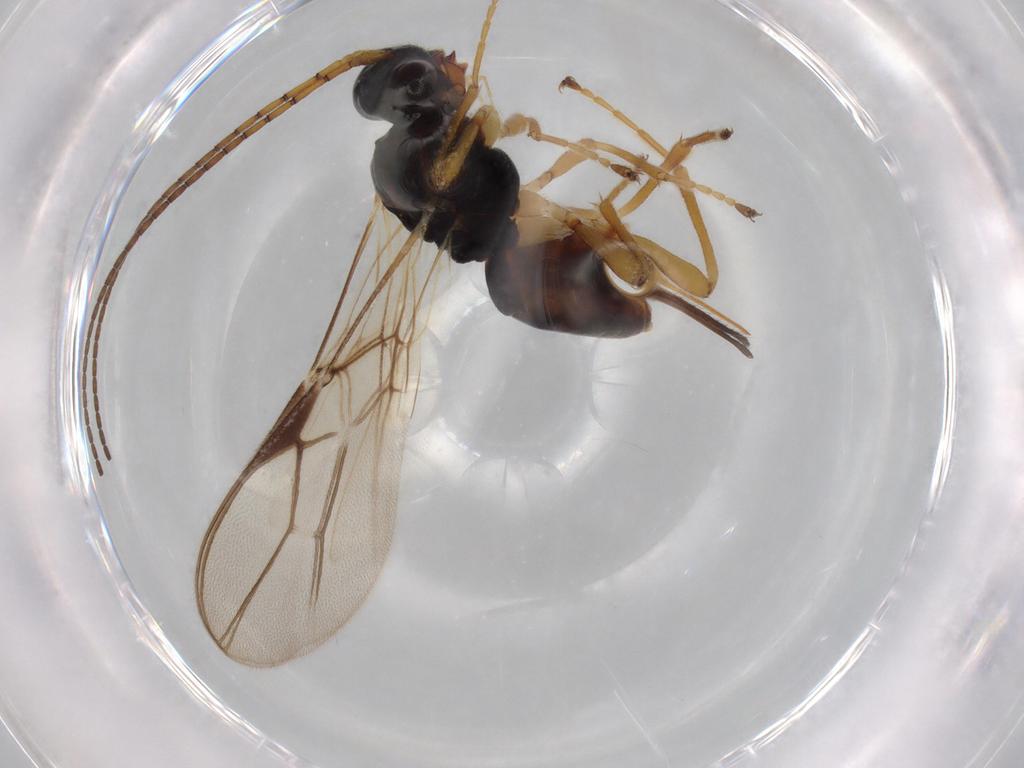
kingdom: Animalia
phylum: Arthropoda
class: Insecta
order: Hymenoptera
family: Braconidae
